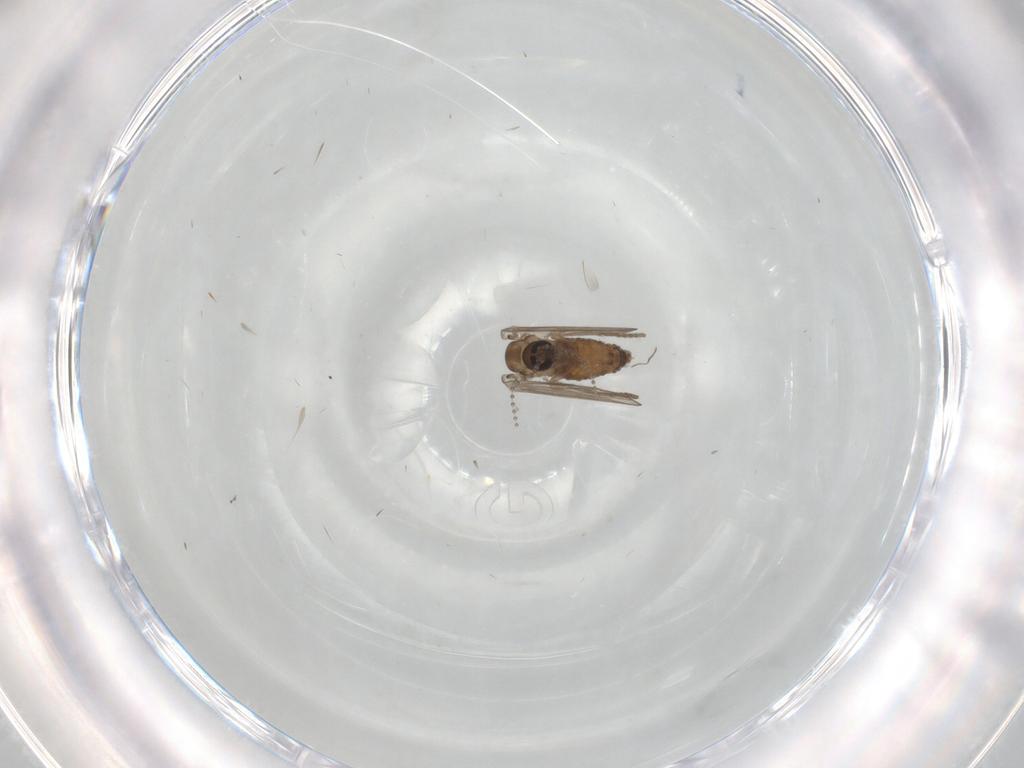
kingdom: Animalia
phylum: Arthropoda
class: Insecta
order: Diptera
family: Psychodidae
